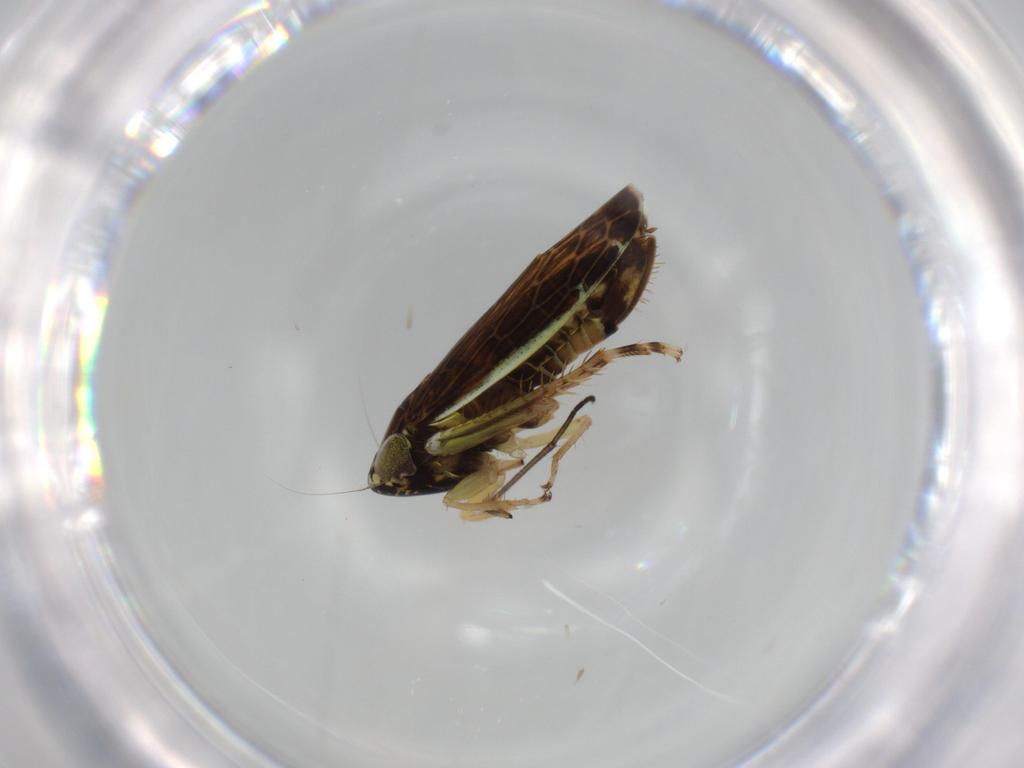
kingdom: Animalia
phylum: Arthropoda
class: Insecta
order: Hemiptera
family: Cicadellidae
